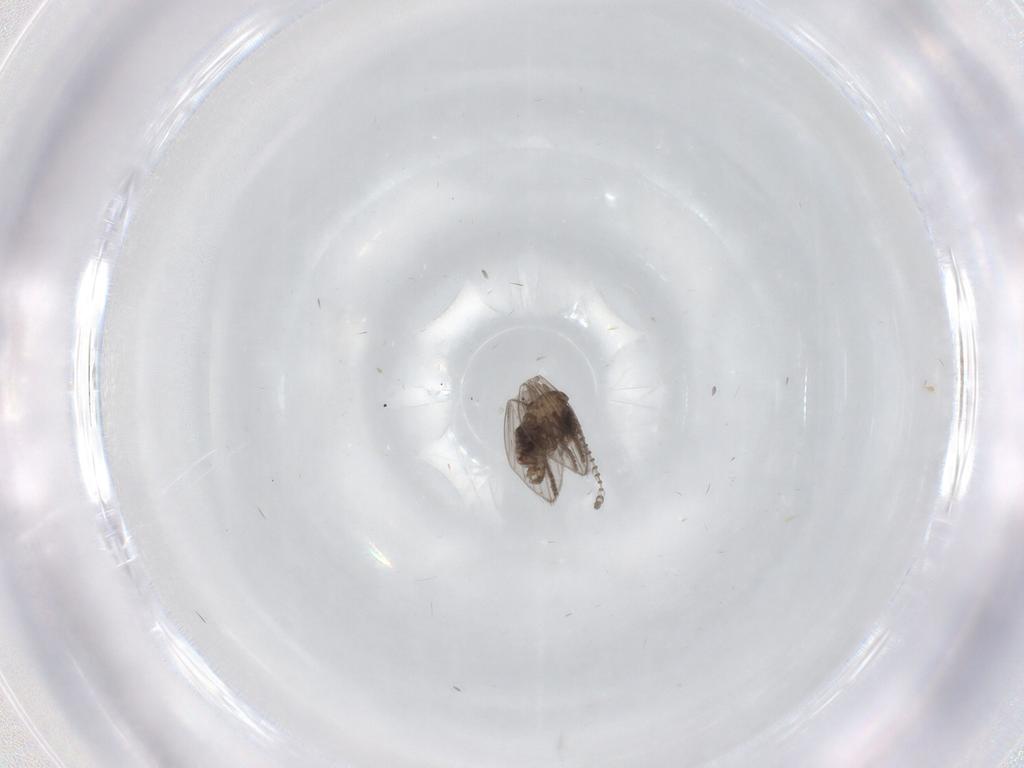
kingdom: Animalia
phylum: Arthropoda
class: Insecta
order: Diptera
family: Psychodidae
